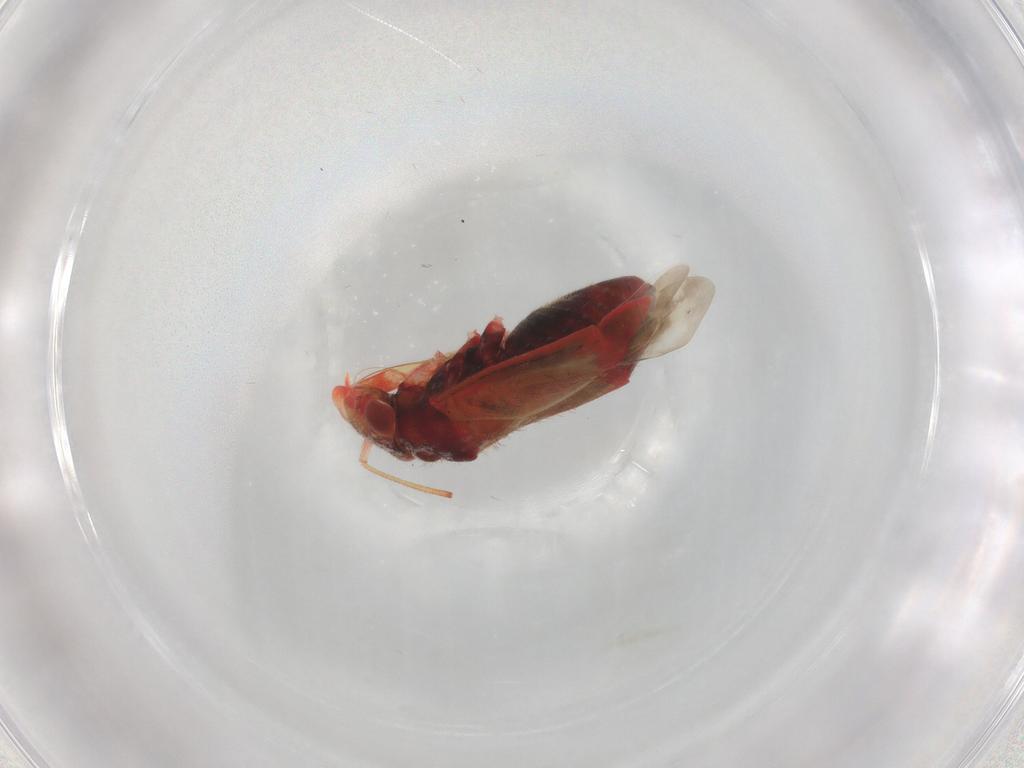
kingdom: Animalia
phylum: Arthropoda
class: Insecta
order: Hemiptera
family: Miridae
